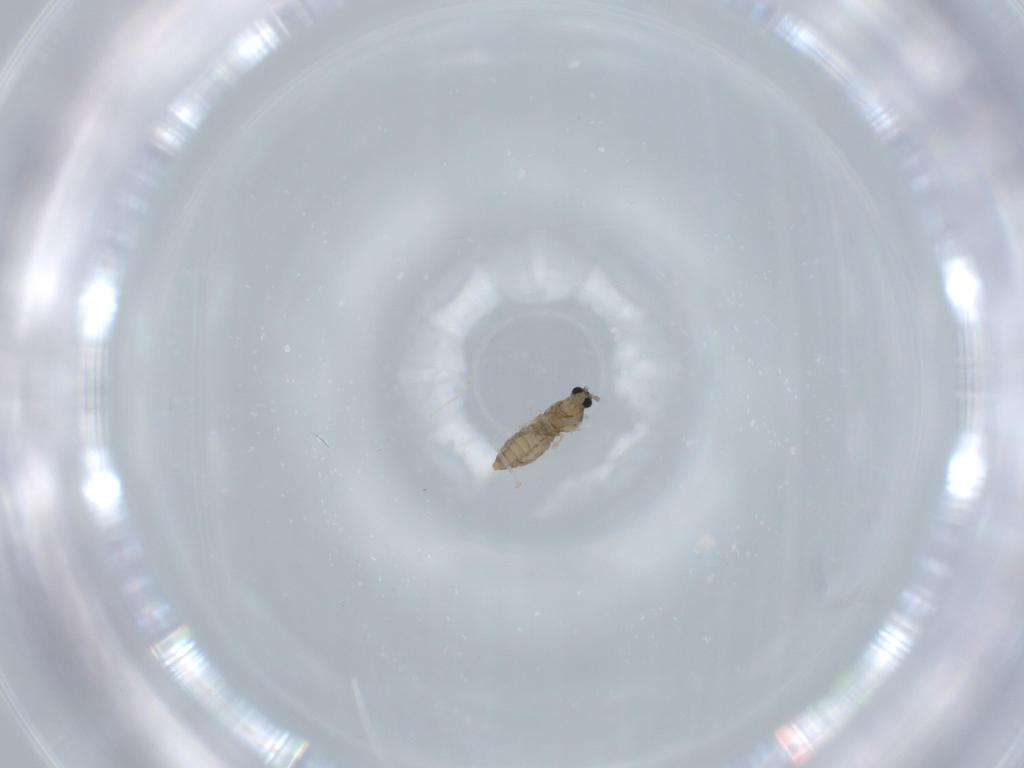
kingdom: Animalia
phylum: Arthropoda
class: Insecta
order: Diptera
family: Cecidomyiidae
